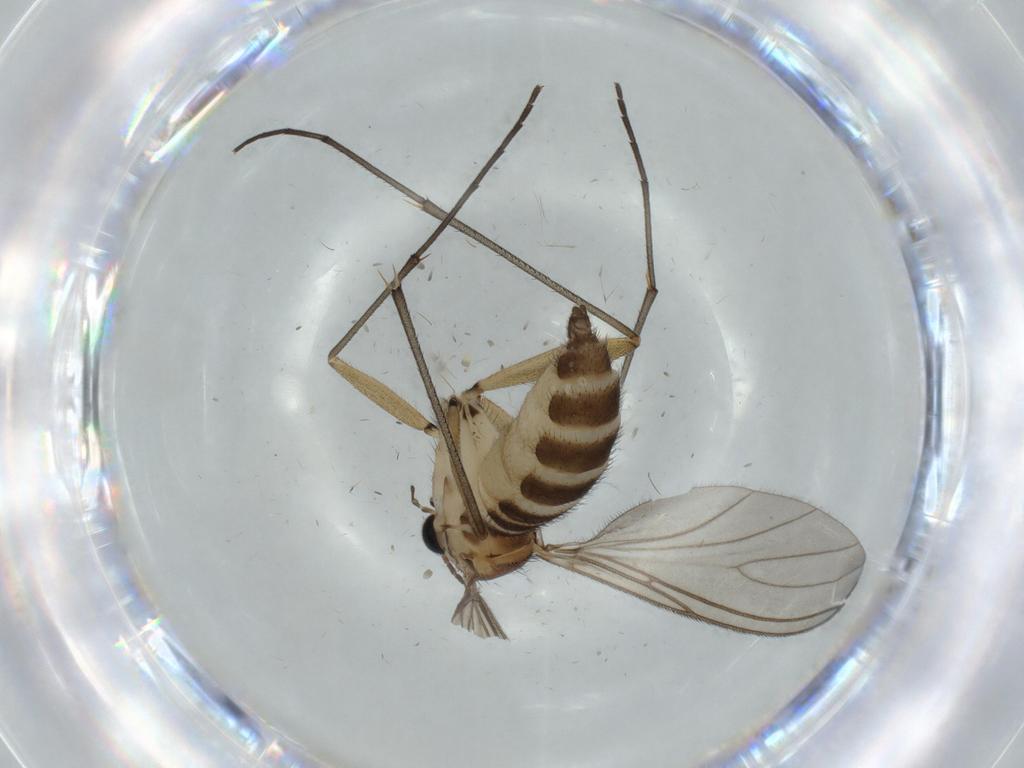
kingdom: Animalia
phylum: Arthropoda
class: Insecta
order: Diptera
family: Sciaridae
